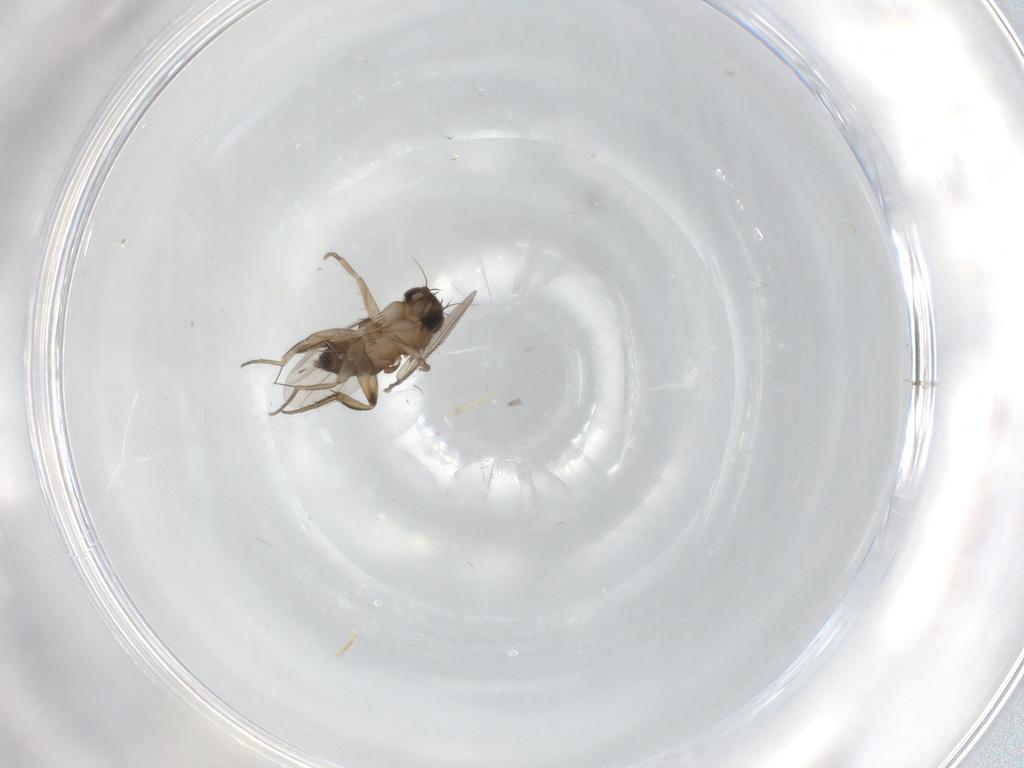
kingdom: Animalia
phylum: Arthropoda
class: Insecta
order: Diptera
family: Phoridae
